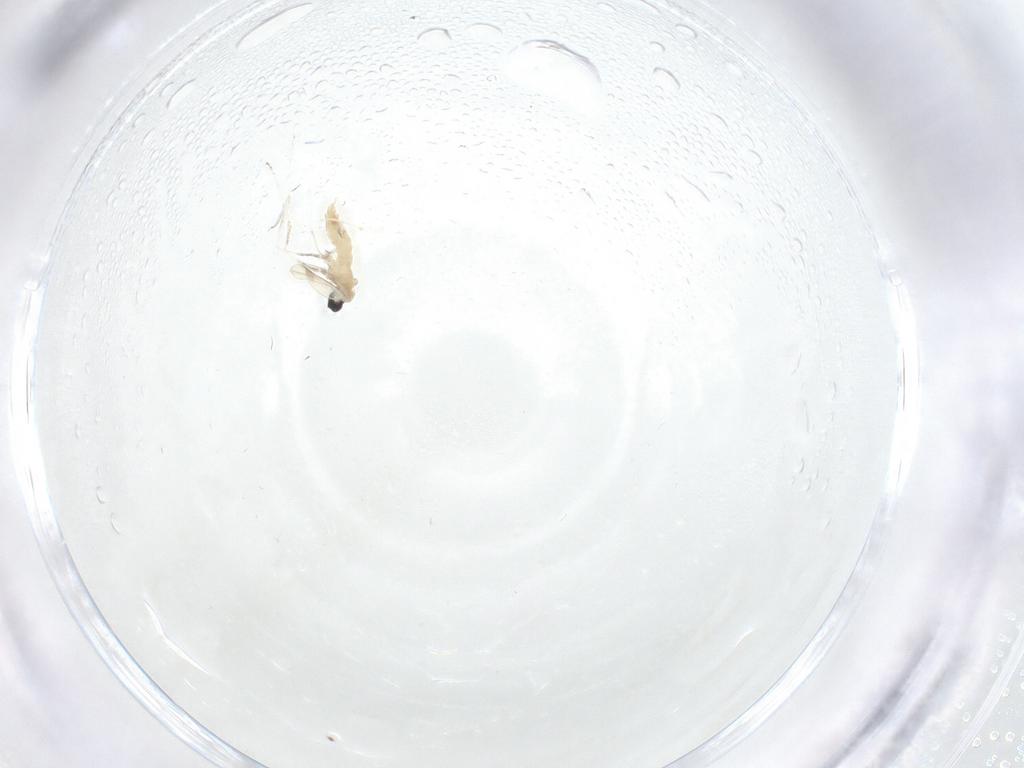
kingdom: Animalia
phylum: Arthropoda
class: Insecta
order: Diptera
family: Cecidomyiidae
